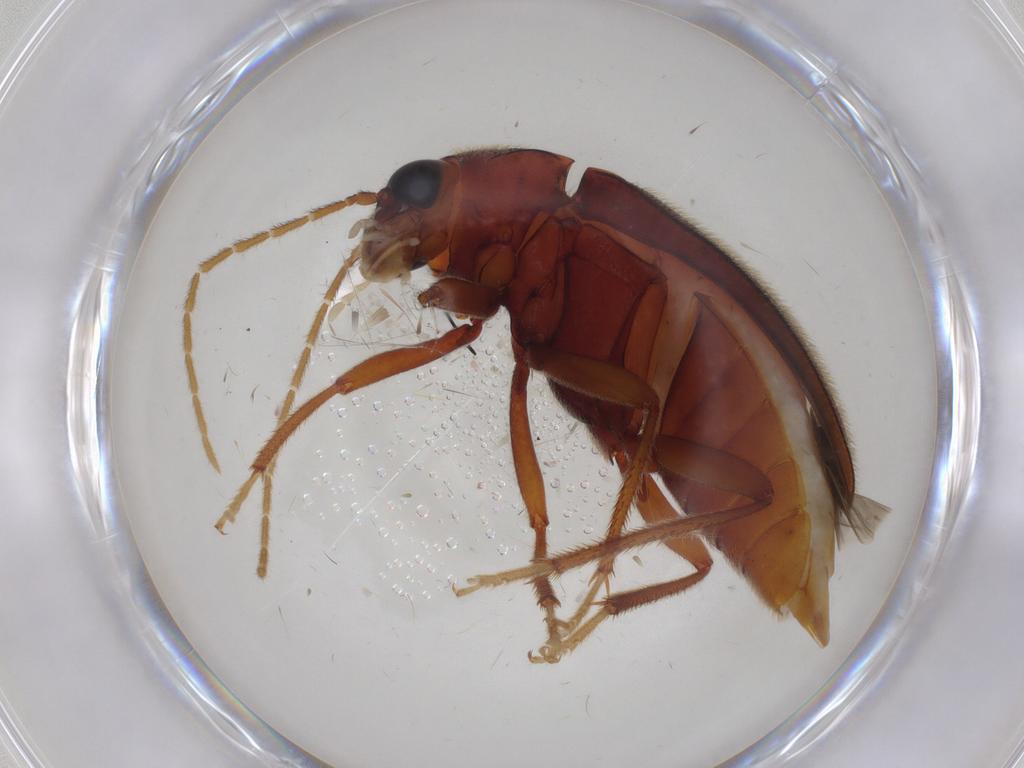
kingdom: Animalia
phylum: Arthropoda
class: Insecta
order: Coleoptera
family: Ptilodactylidae
